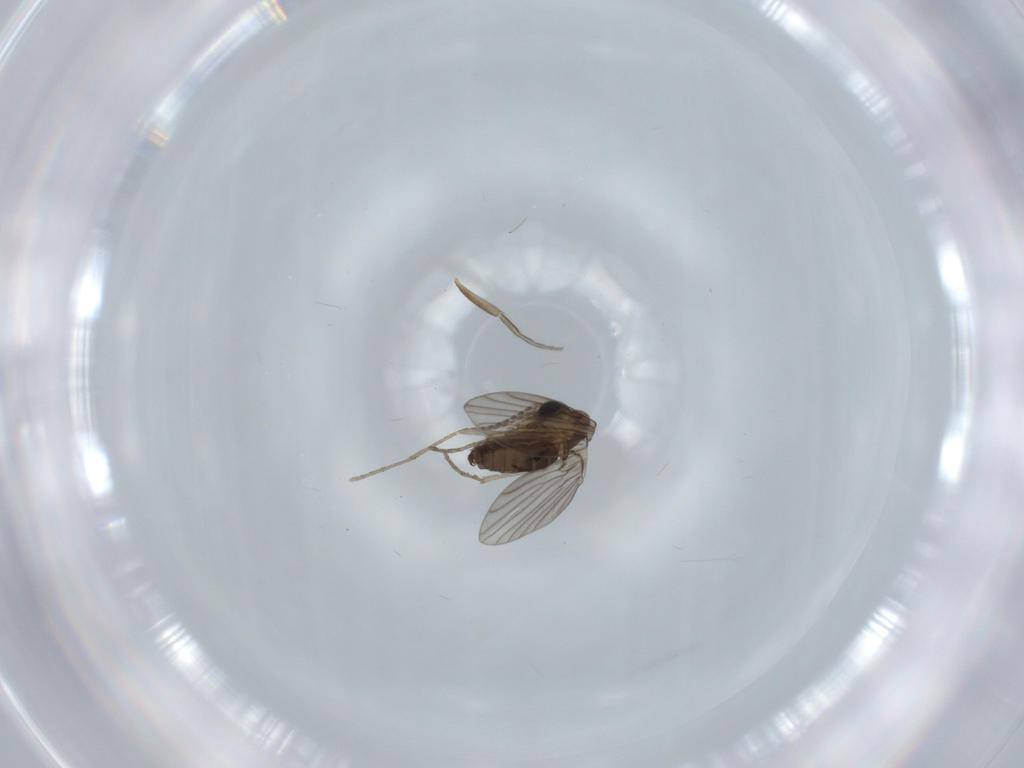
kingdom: Animalia
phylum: Arthropoda
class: Insecta
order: Diptera
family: Psychodidae
